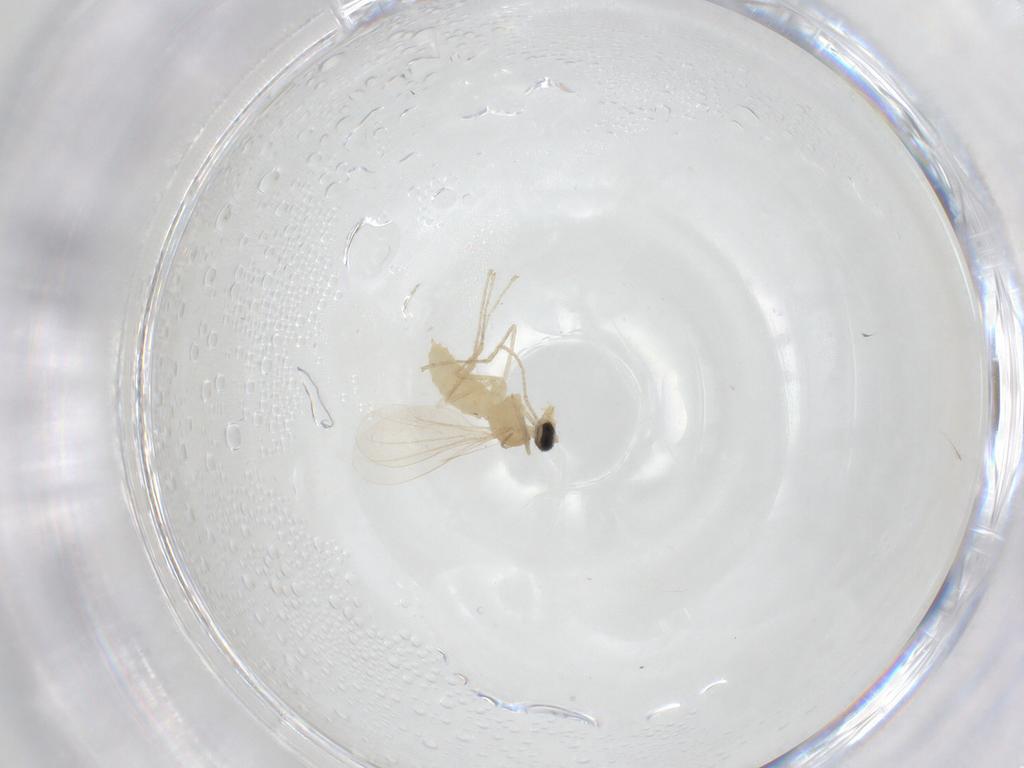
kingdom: Animalia
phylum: Arthropoda
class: Insecta
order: Diptera
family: Cecidomyiidae
